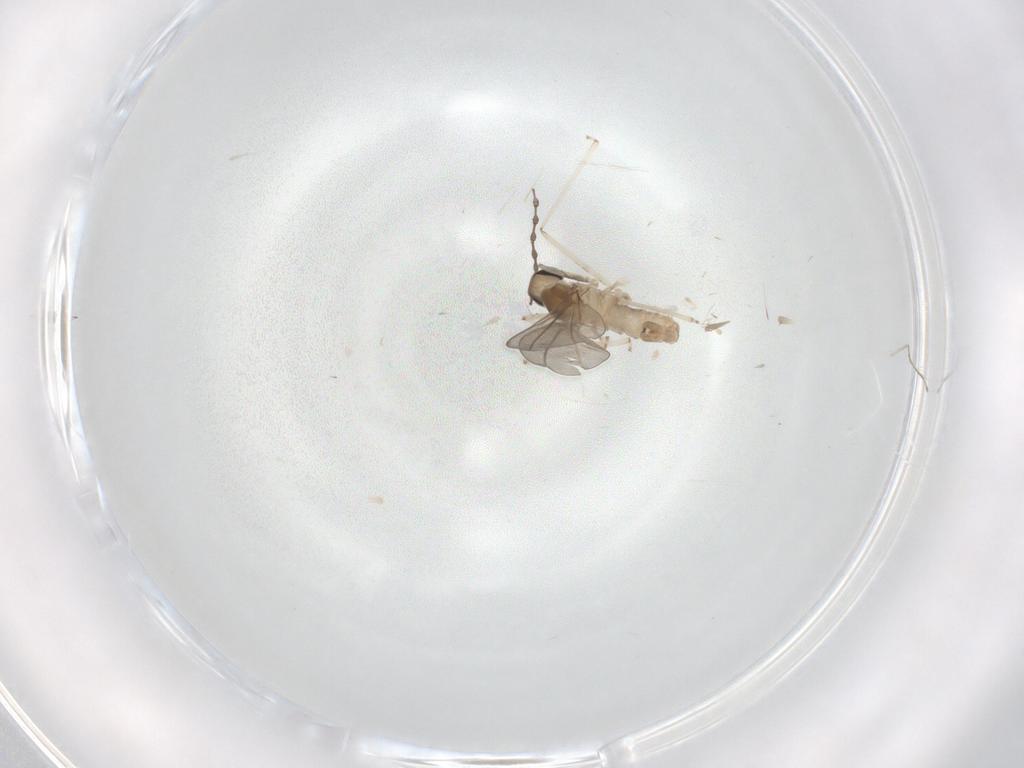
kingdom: Animalia
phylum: Arthropoda
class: Insecta
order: Diptera
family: Cecidomyiidae
